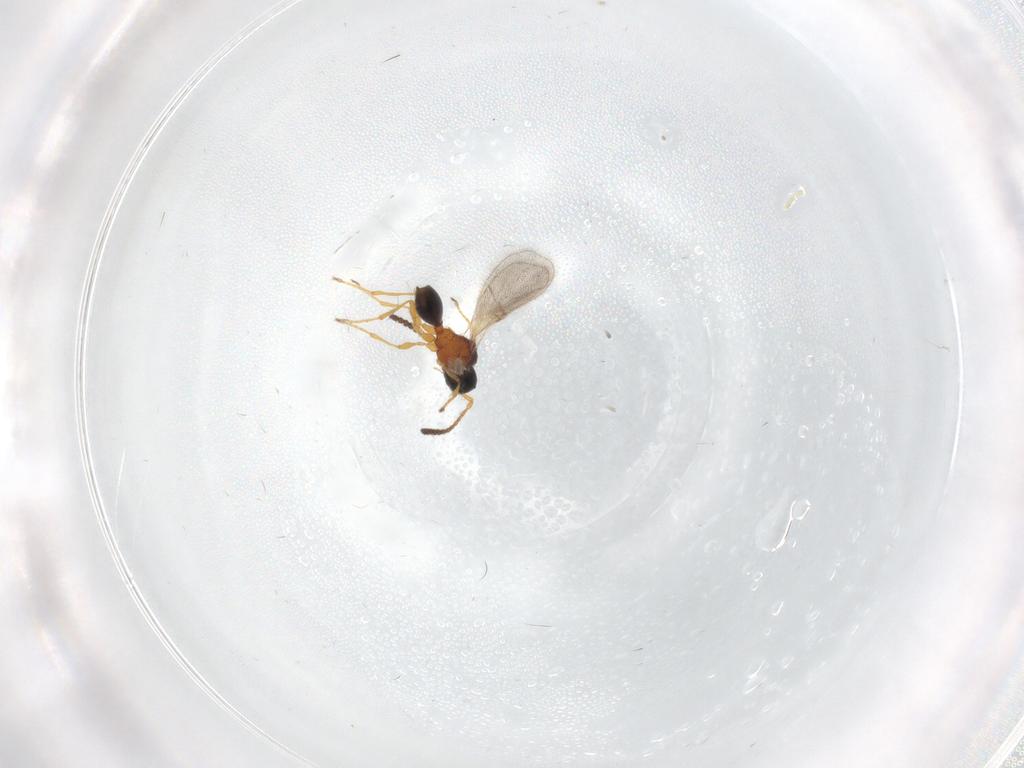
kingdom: Animalia
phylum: Arthropoda
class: Insecta
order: Hymenoptera
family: Diapriidae
